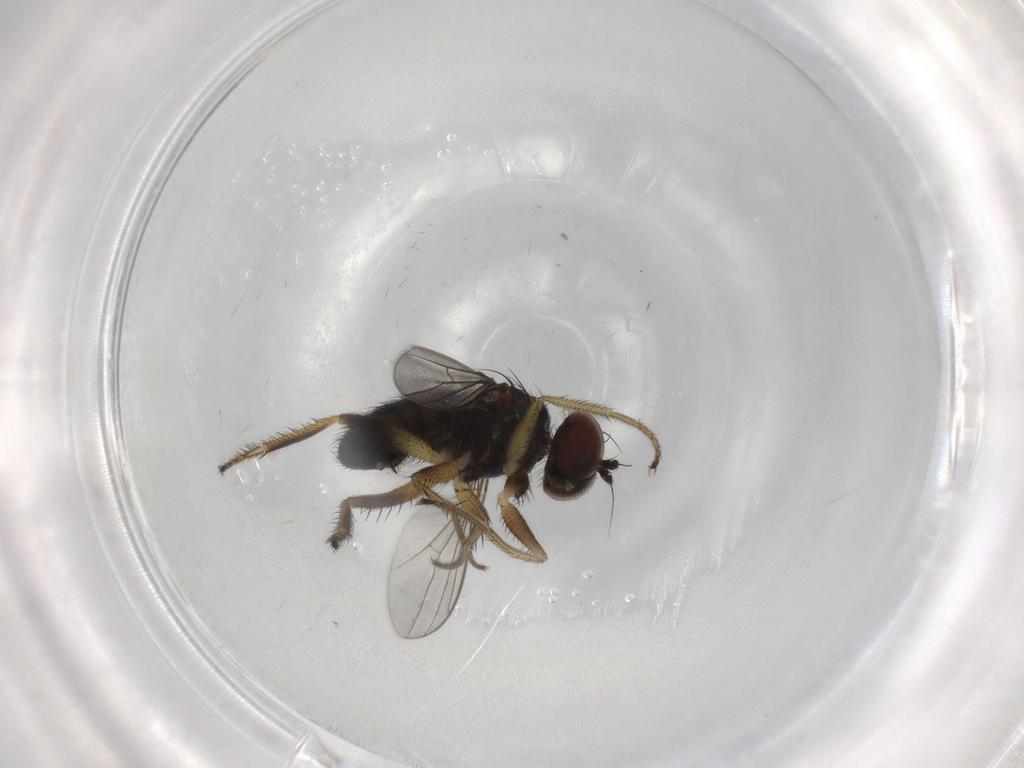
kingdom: Animalia
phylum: Arthropoda
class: Insecta
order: Diptera
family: Dolichopodidae
